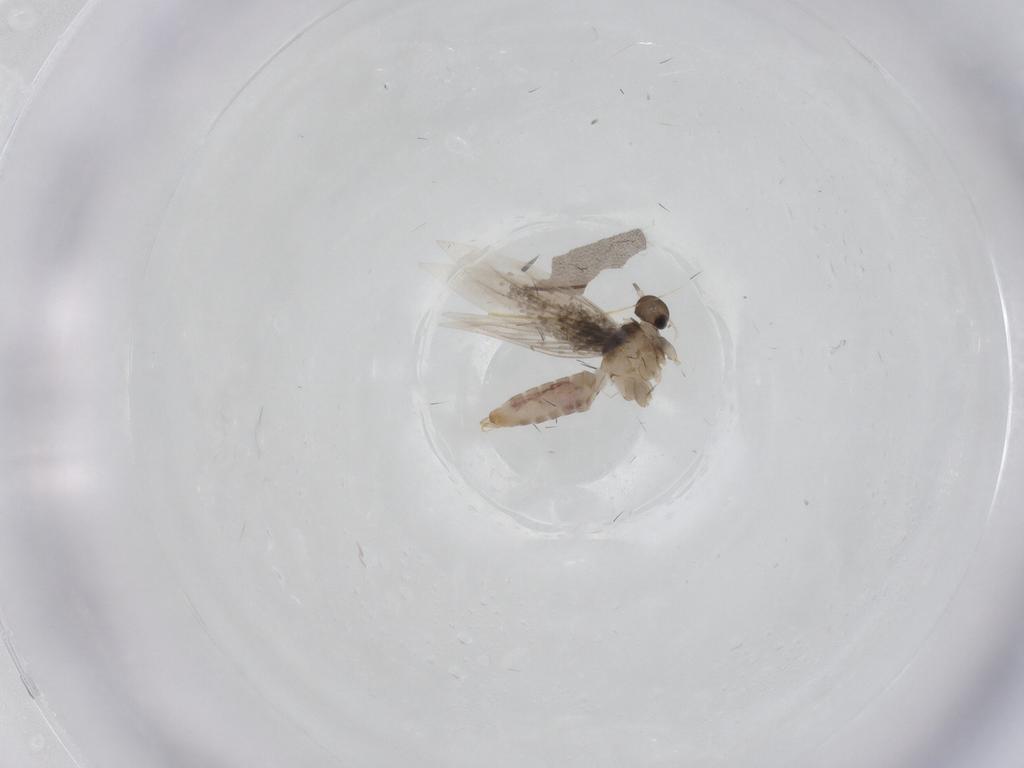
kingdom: Animalia
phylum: Arthropoda
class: Insecta
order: Lepidoptera
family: Heliozelidae
